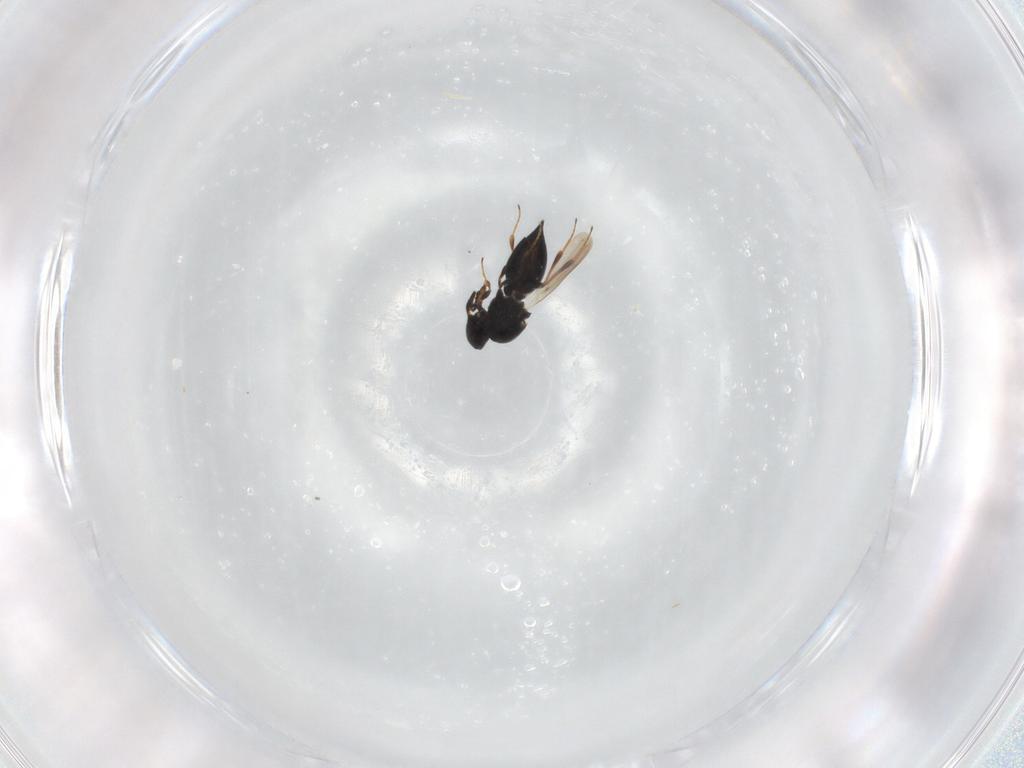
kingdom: Animalia
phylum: Arthropoda
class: Insecta
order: Hymenoptera
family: Platygastridae
